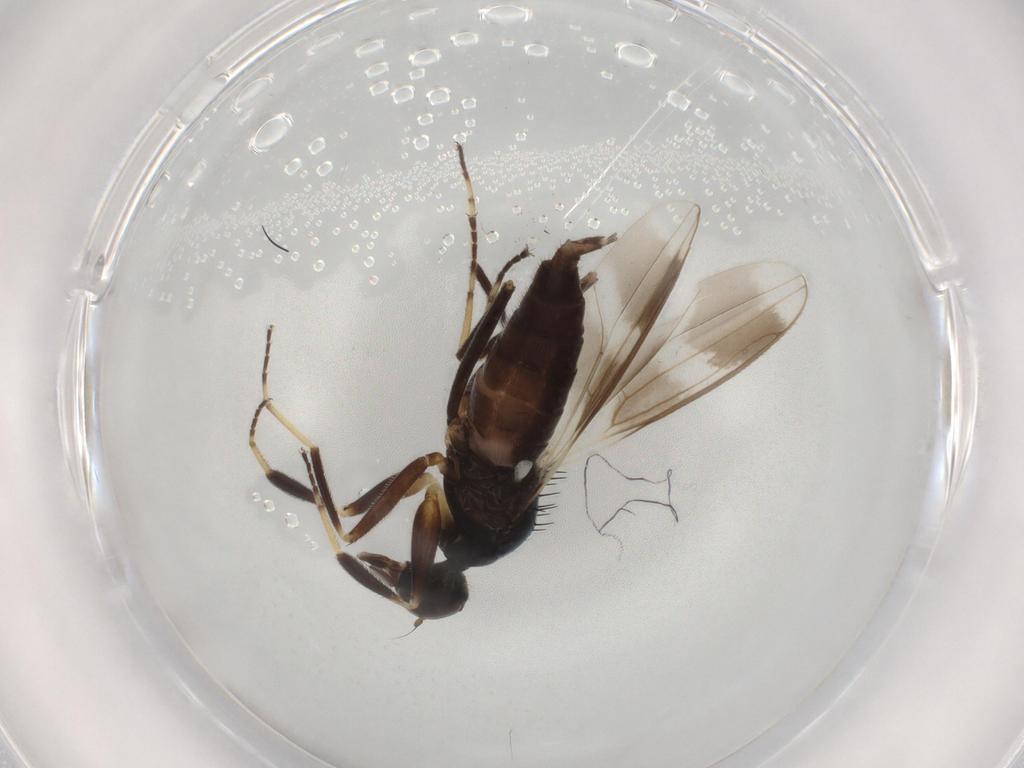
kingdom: Animalia
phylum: Arthropoda
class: Insecta
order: Diptera
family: Hybotidae
